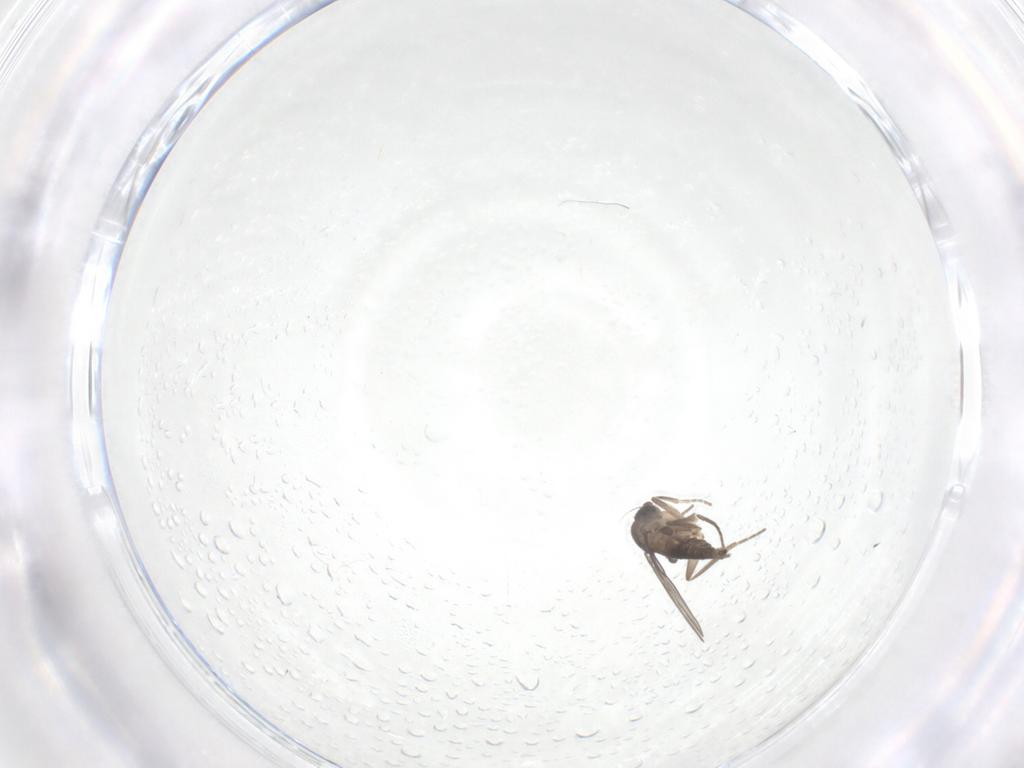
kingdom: Animalia
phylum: Arthropoda
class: Insecta
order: Diptera
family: Phoridae
